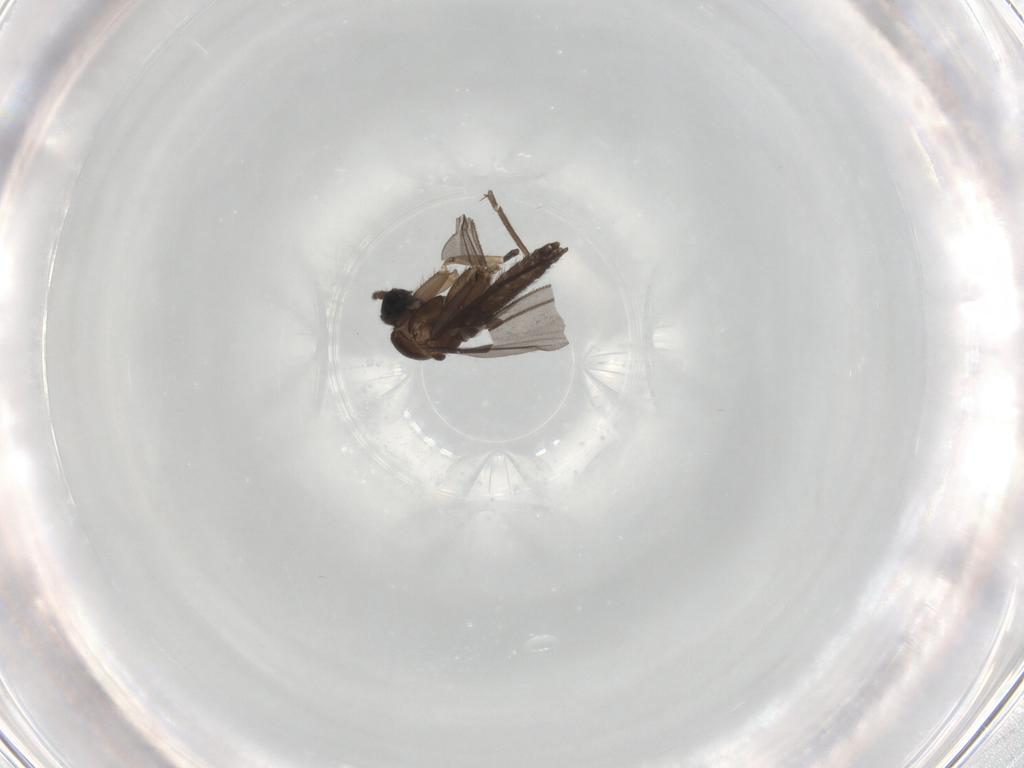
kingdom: Animalia
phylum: Arthropoda
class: Insecta
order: Diptera
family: Sciaridae
